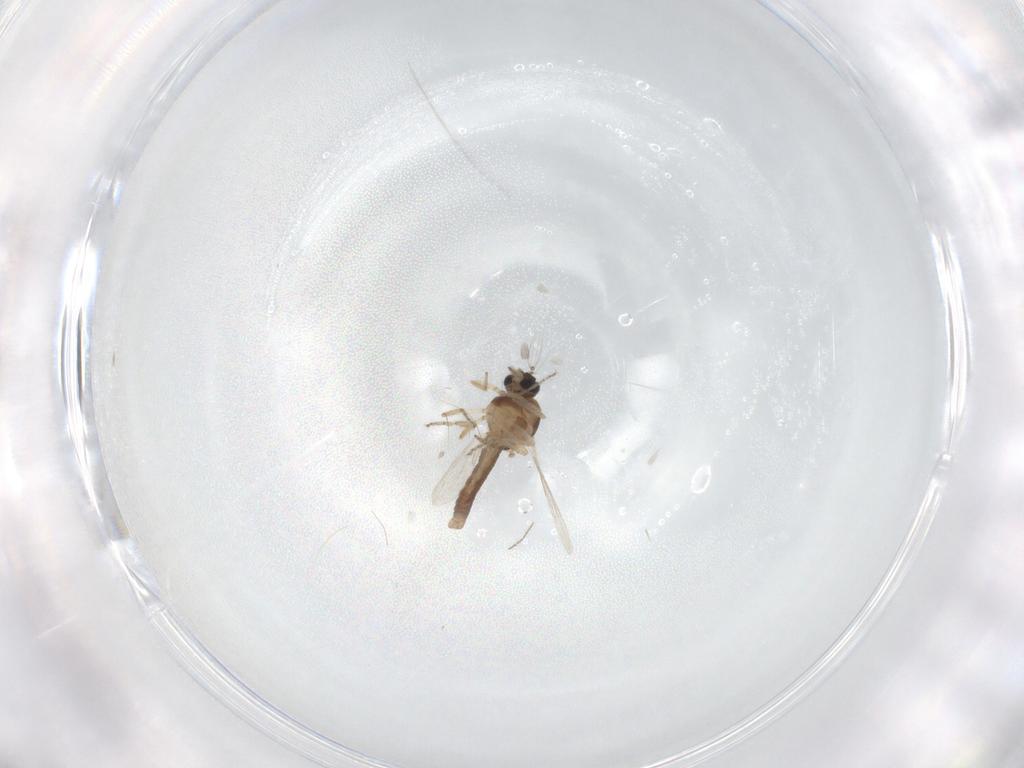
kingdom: Animalia
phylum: Arthropoda
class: Insecta
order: Diptera
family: Ceratopogonidae
